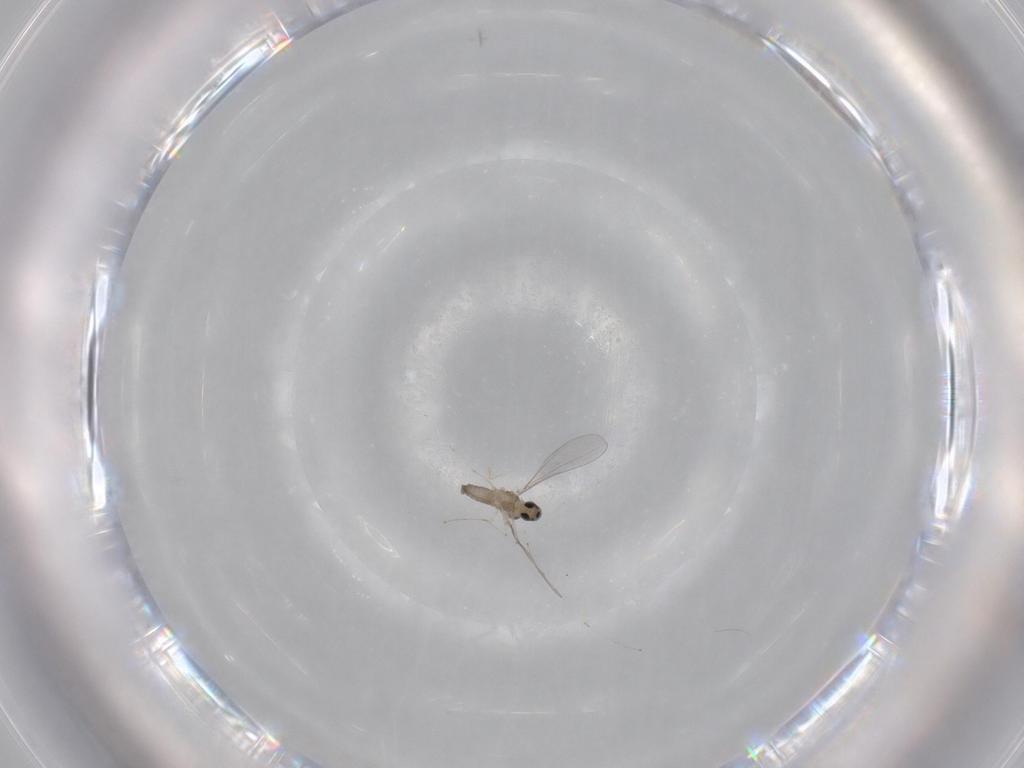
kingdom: Animalia
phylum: Arthropoda
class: Insecta
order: Diptera
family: Cecidomyiidae
